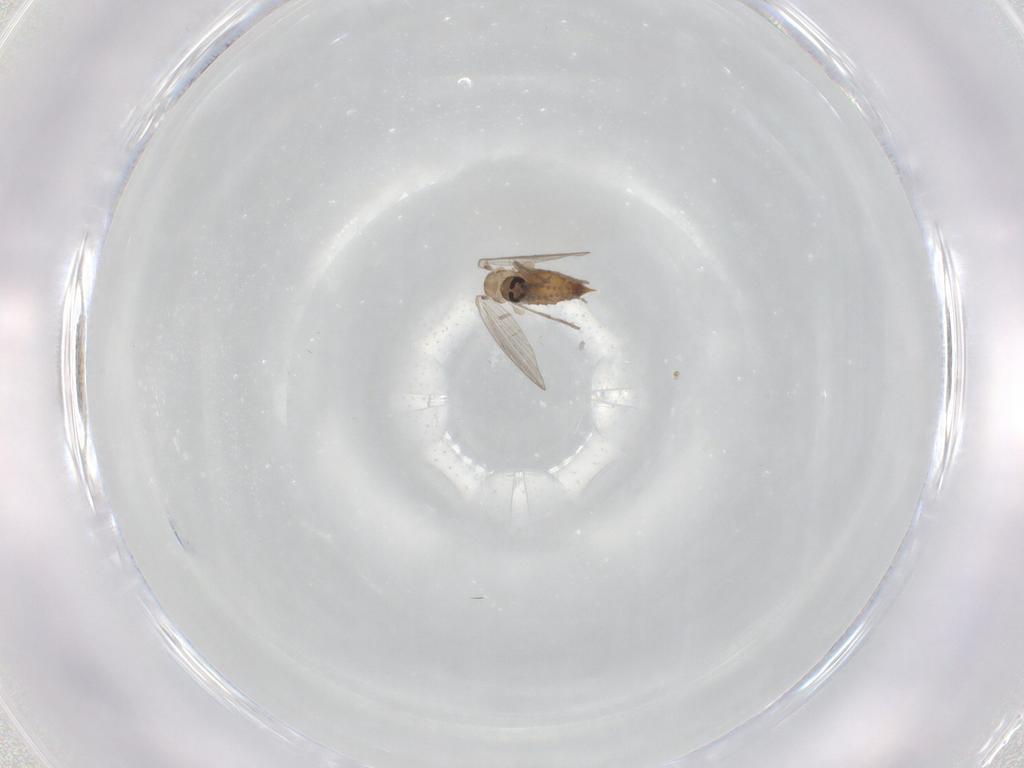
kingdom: Animalia
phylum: Arthropoda
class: Insecta
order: Diptera
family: Psychodidae
